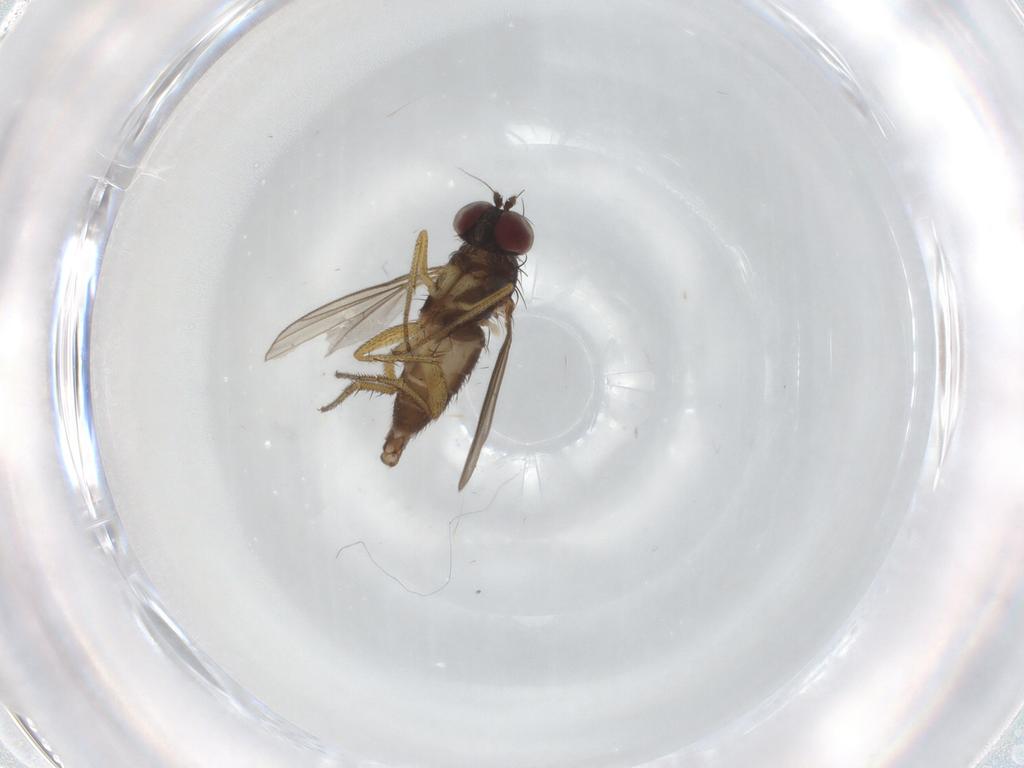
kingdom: Animalia
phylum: Arthropoda
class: Insecta
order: Diptera
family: Dolichopodidae
